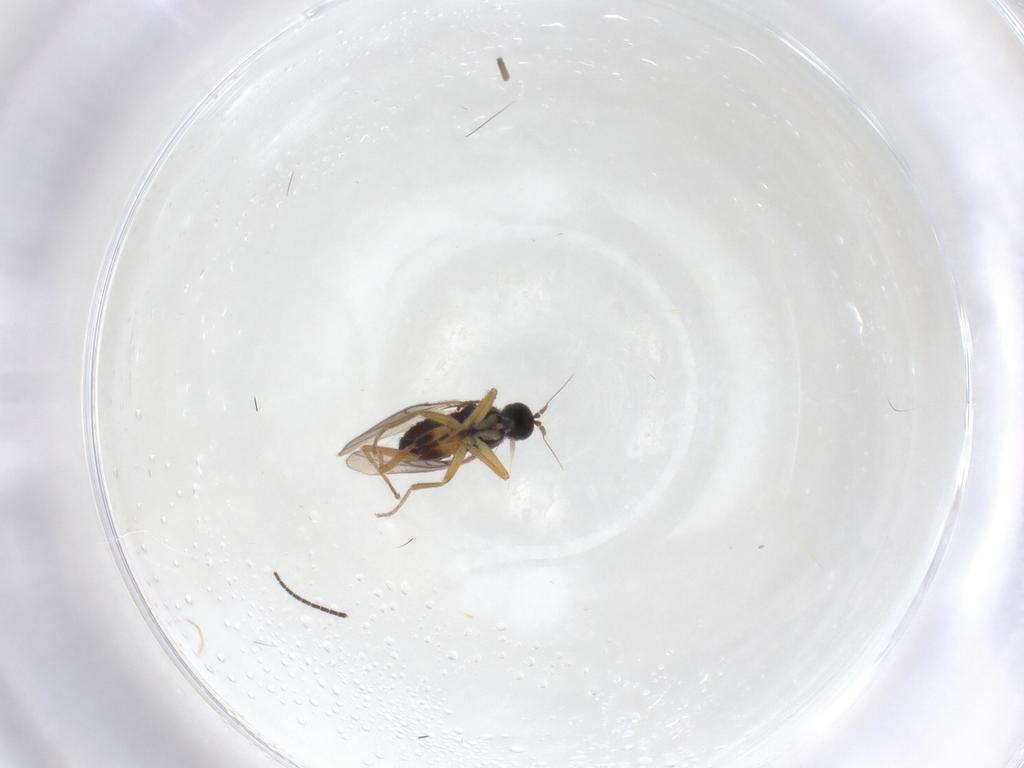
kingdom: Animalia
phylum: Arthropoda
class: Insecta
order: Diptera
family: Hybotidae
